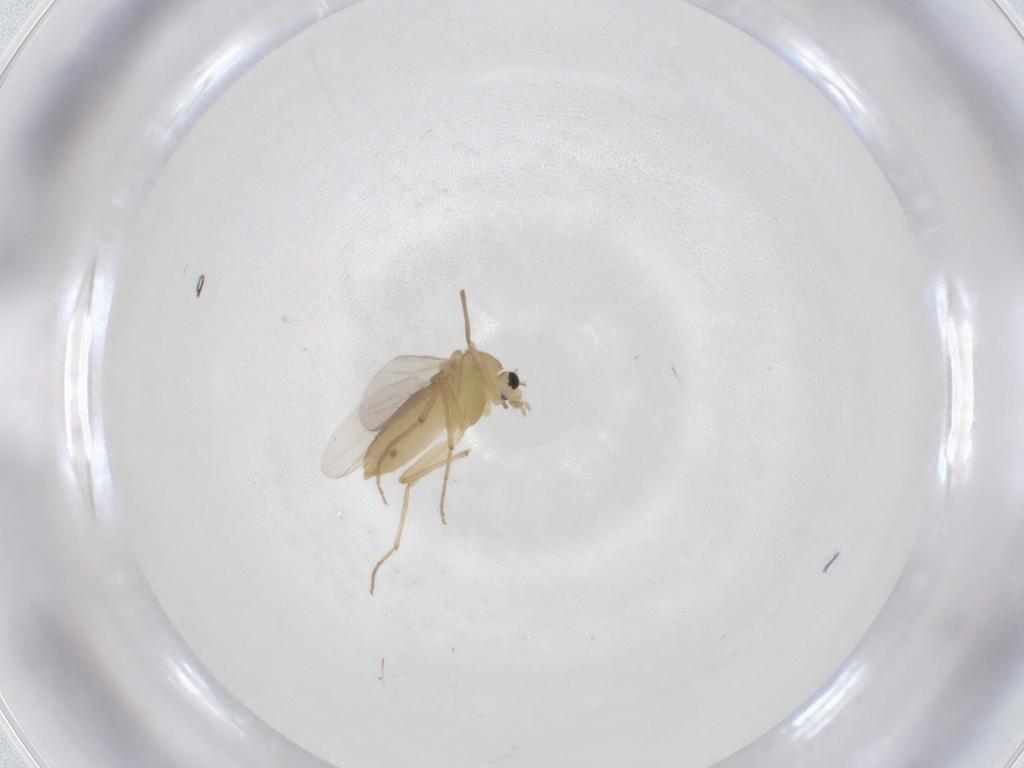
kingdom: Animalia
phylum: Arthropoda
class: Insecta
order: Diptera
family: Chironomidae
